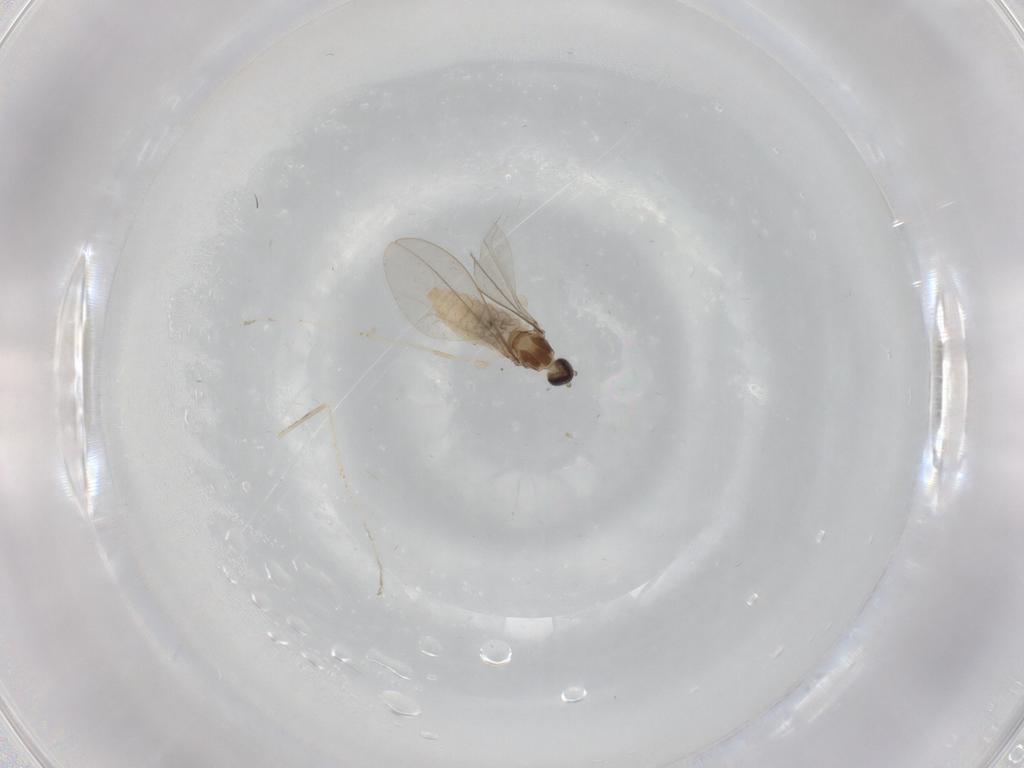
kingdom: Animalia
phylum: Arthropoda
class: Insecta
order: Diptera
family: Cecidomyiidae
